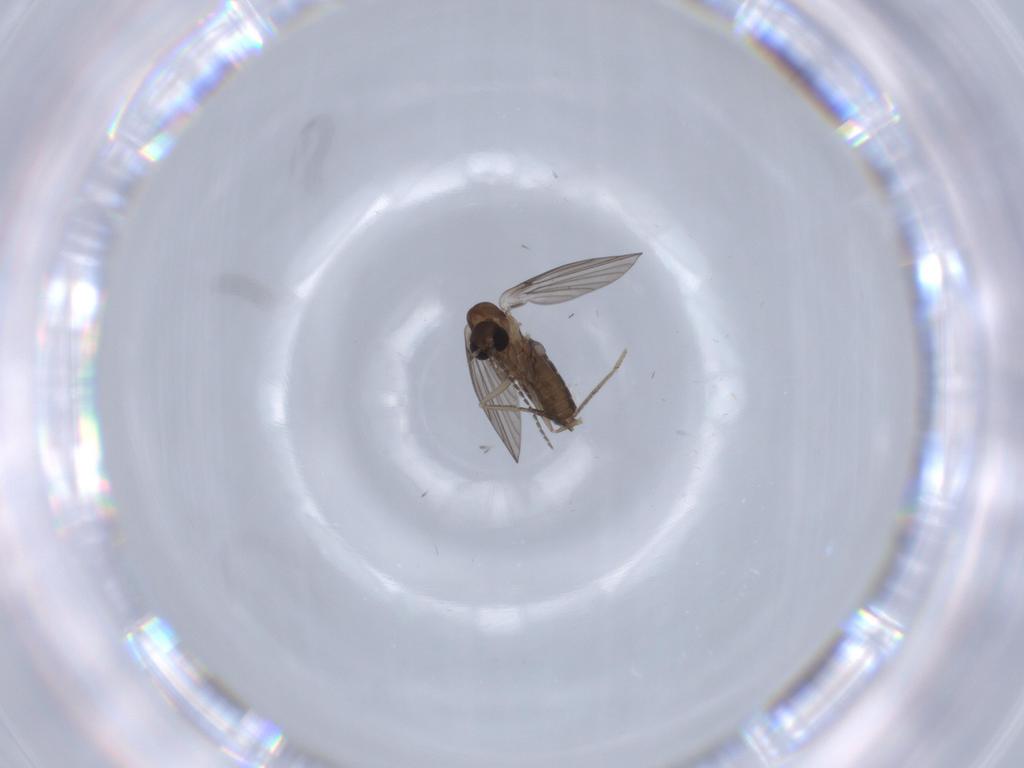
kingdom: Animalia
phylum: Arthropoda
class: Insecta
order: Diptera
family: Psychodidae
